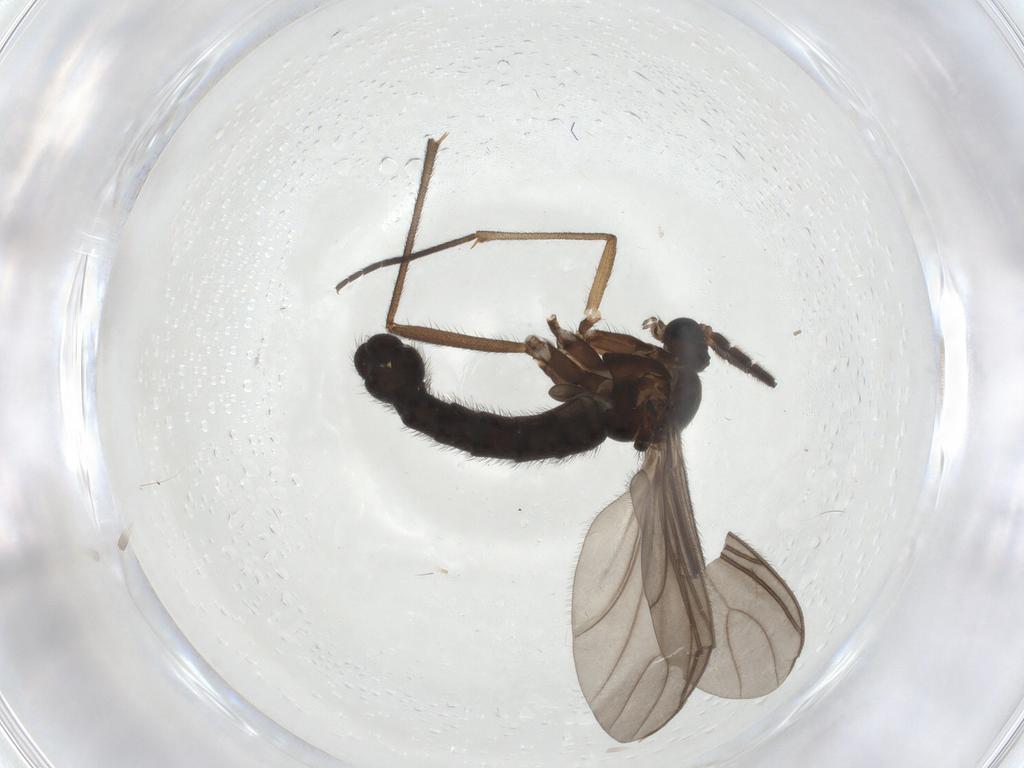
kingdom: Animalia
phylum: Arthropoda
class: Insecta
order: Diptera
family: Sciaridae
